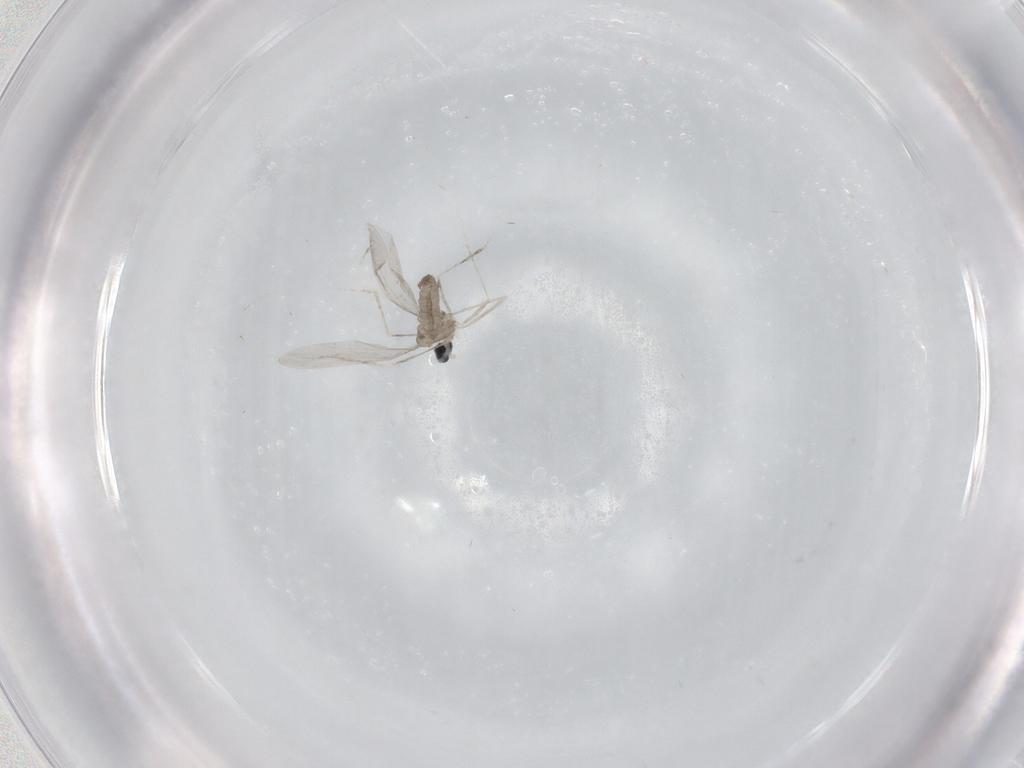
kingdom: Animalia
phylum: Arthropoda
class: Insecta
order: Diptera
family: Cecidomyiidae
